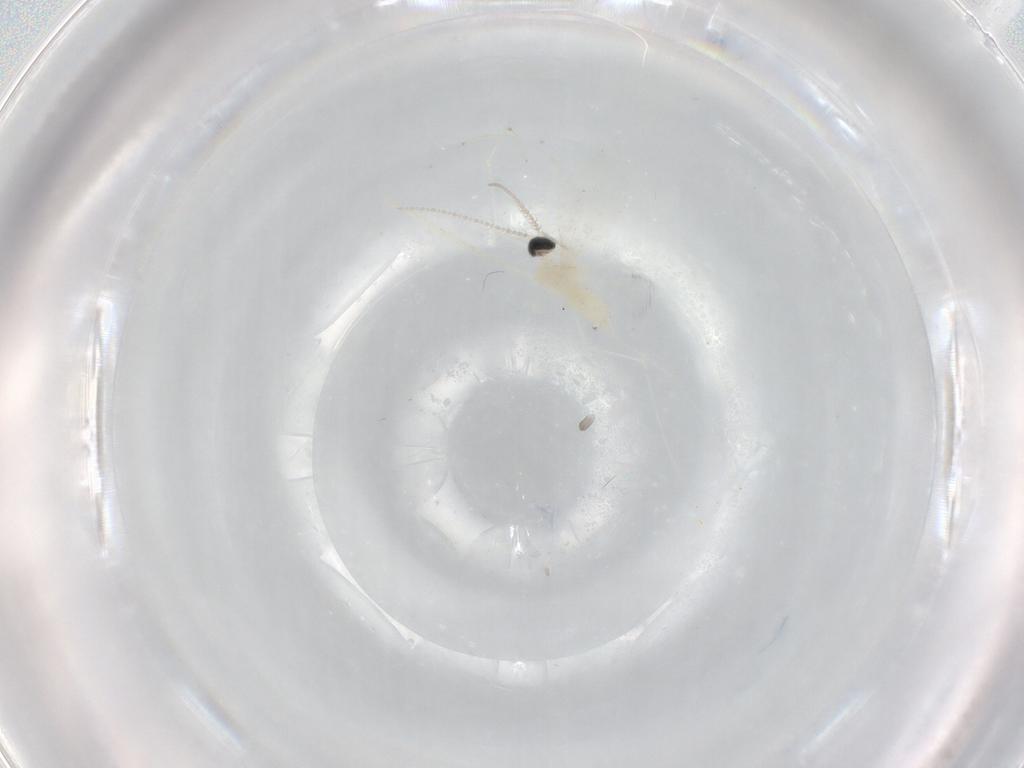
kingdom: Animalia
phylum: Arthropoda
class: Insecta
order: Diptera
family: Cecidomyiidae
